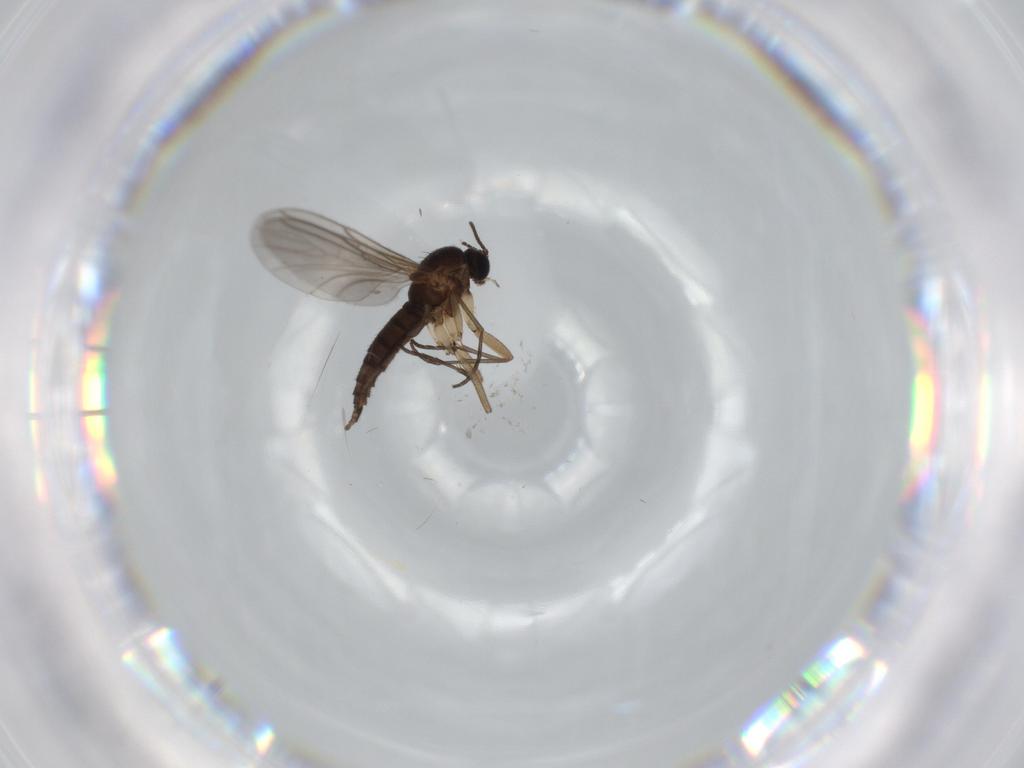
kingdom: Animalia
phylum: Arthropoda
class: Insecta
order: Diptera
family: Sciaridae
